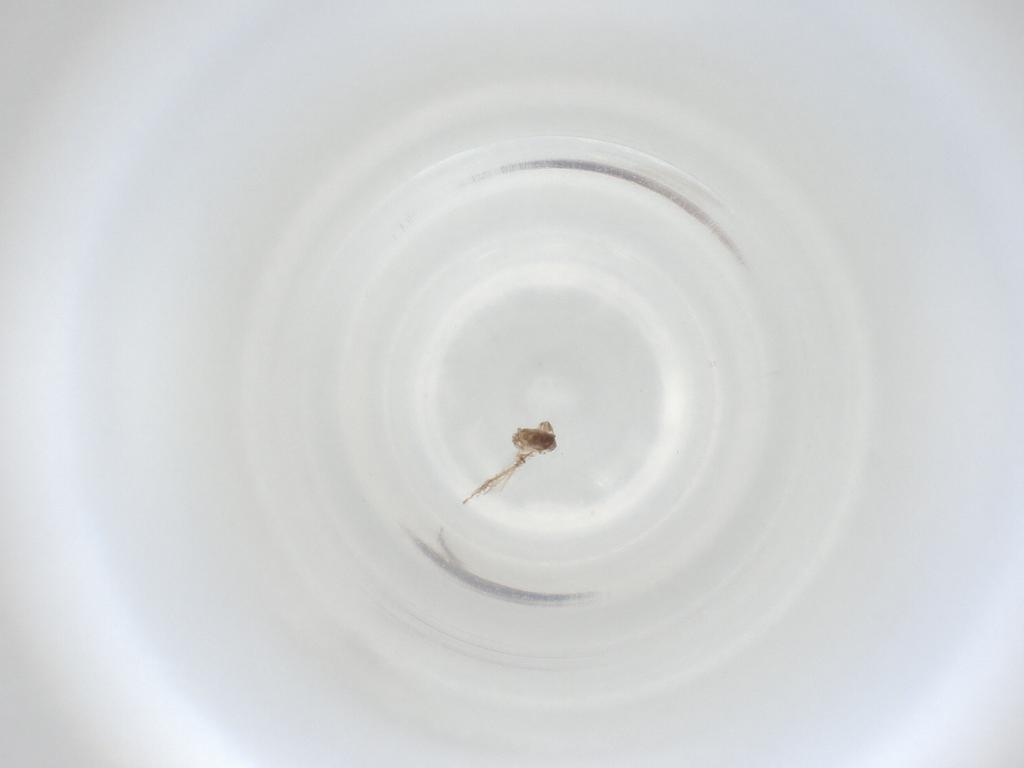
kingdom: Animalia
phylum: Arthropoda
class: Insecta
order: Diptera
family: Cecidomyiidae
